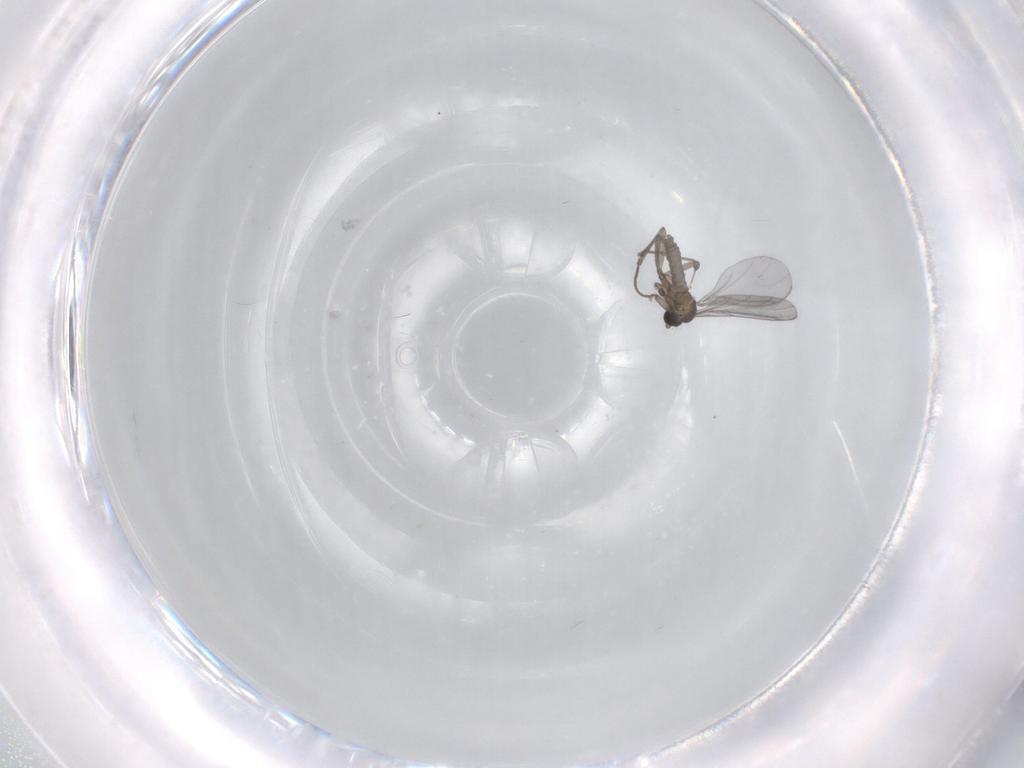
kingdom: Animalia
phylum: Arthropoda
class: Insecta
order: Diptera
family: Sciaridae
